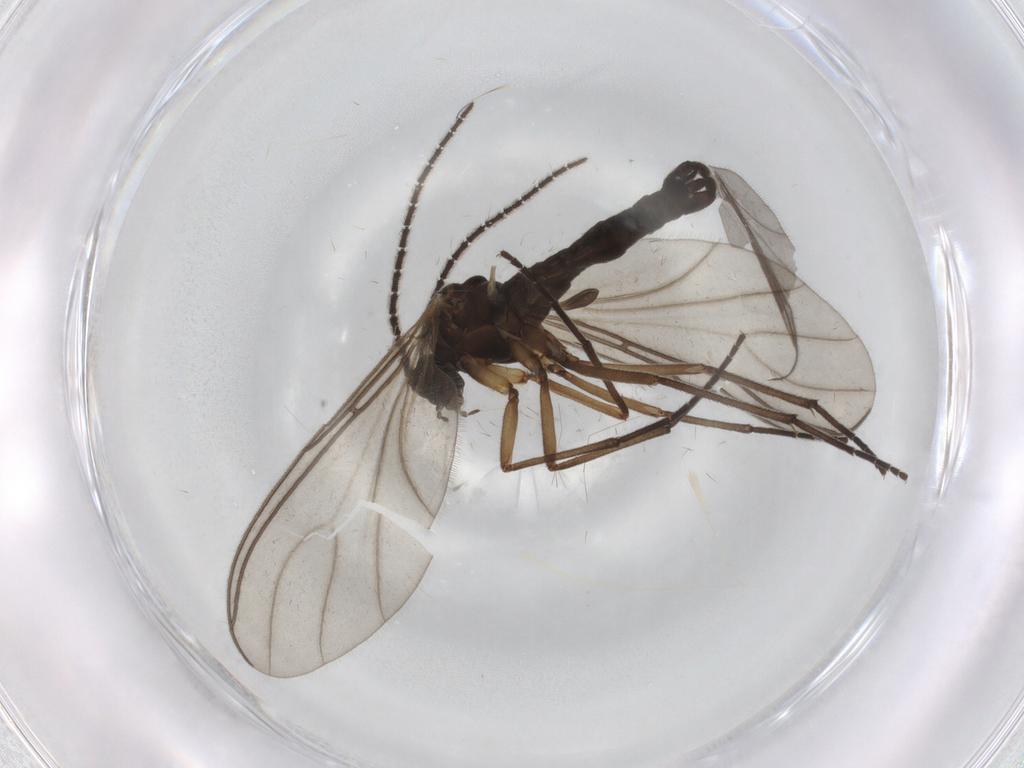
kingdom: Animalia
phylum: Arthropoda
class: Insecta
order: Diptera
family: Sciaridae
